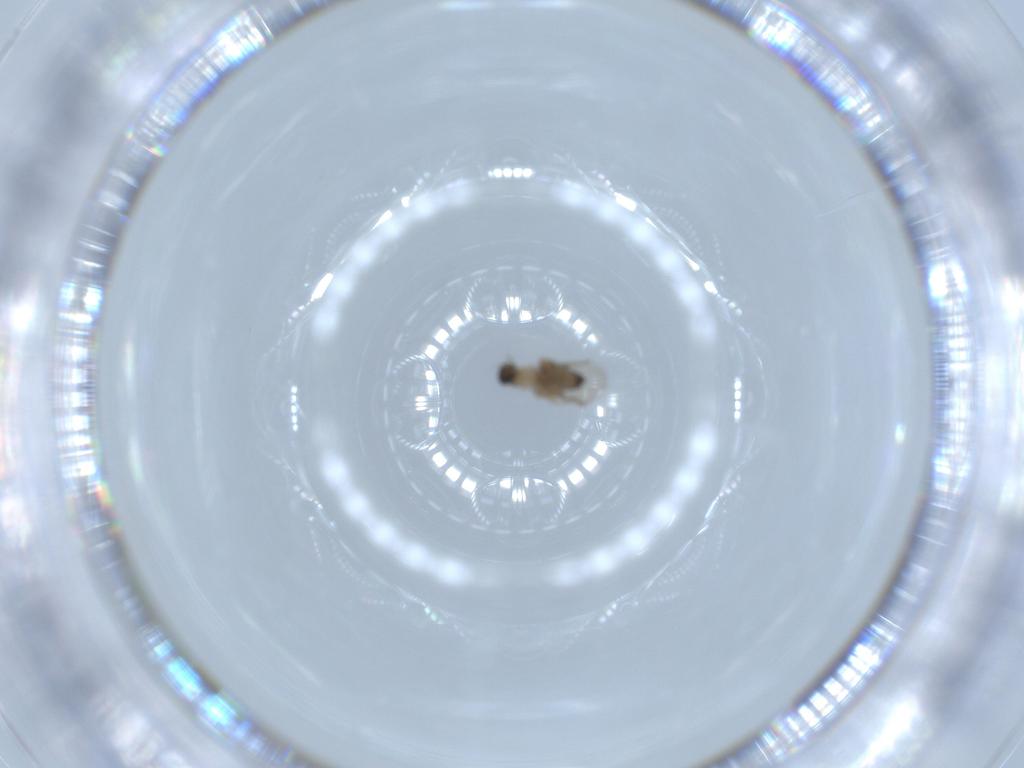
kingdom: Animalia
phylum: Arthropoda
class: Insecta
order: Diptera
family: Phoridae
